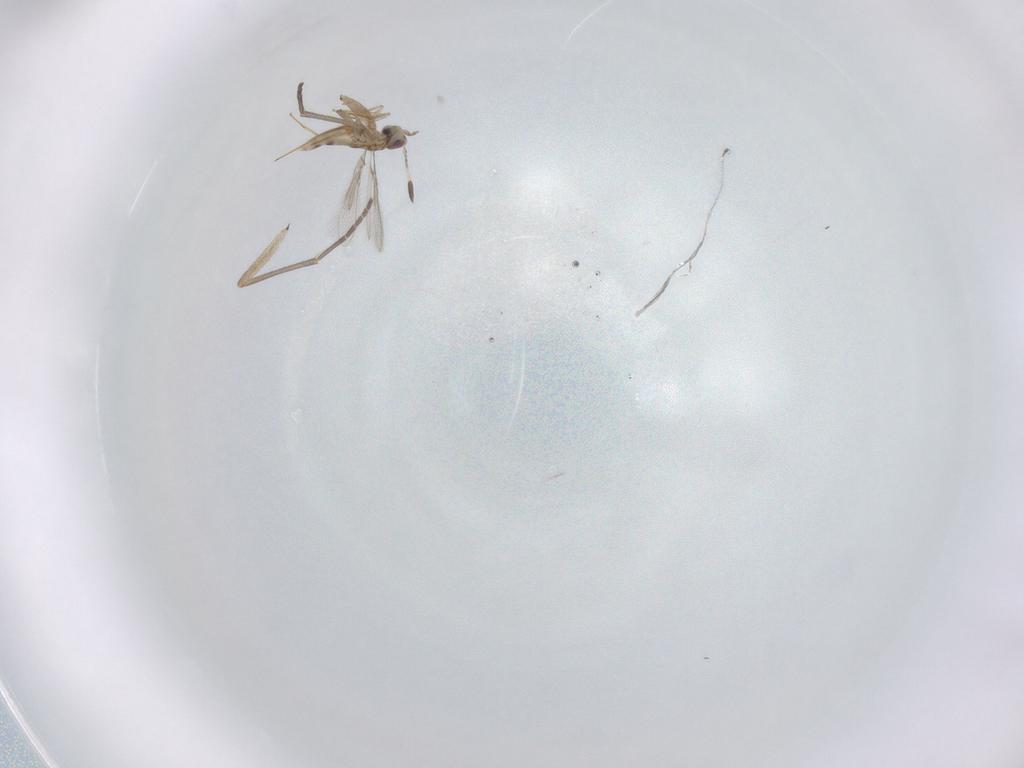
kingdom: Animalia
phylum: Arthropoda
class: Insecta
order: Hymenoptera
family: Mymaridae
